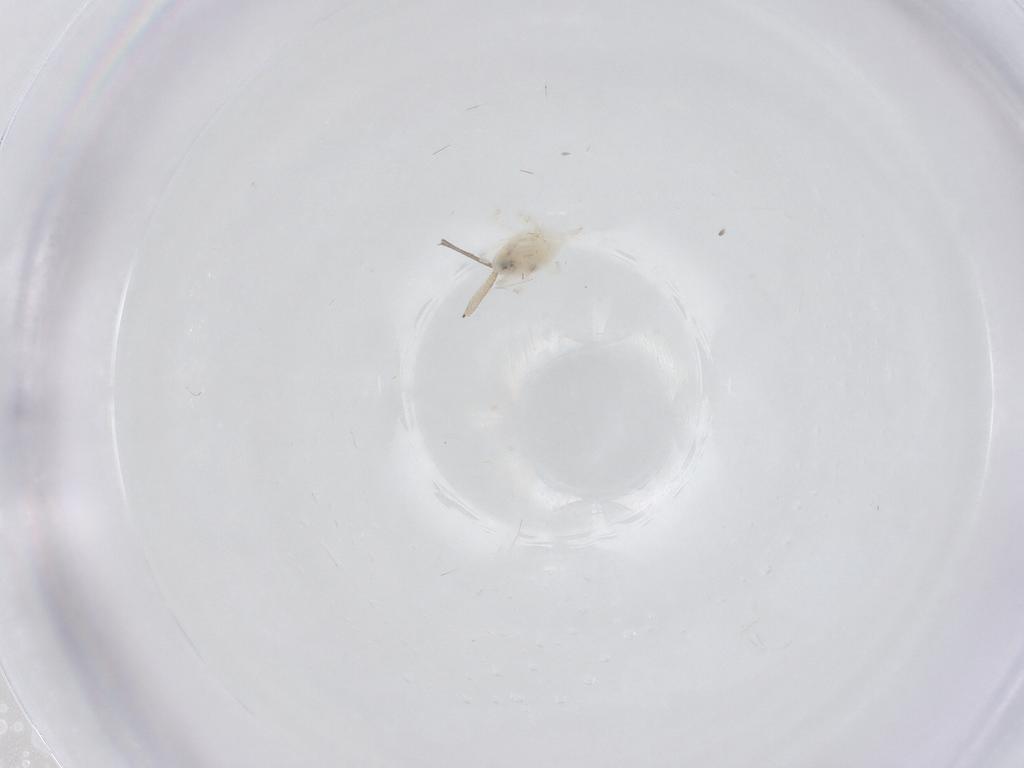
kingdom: Animalia
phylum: Arthropoda
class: Arachnida
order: Trombidiformes
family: Bdellidae
